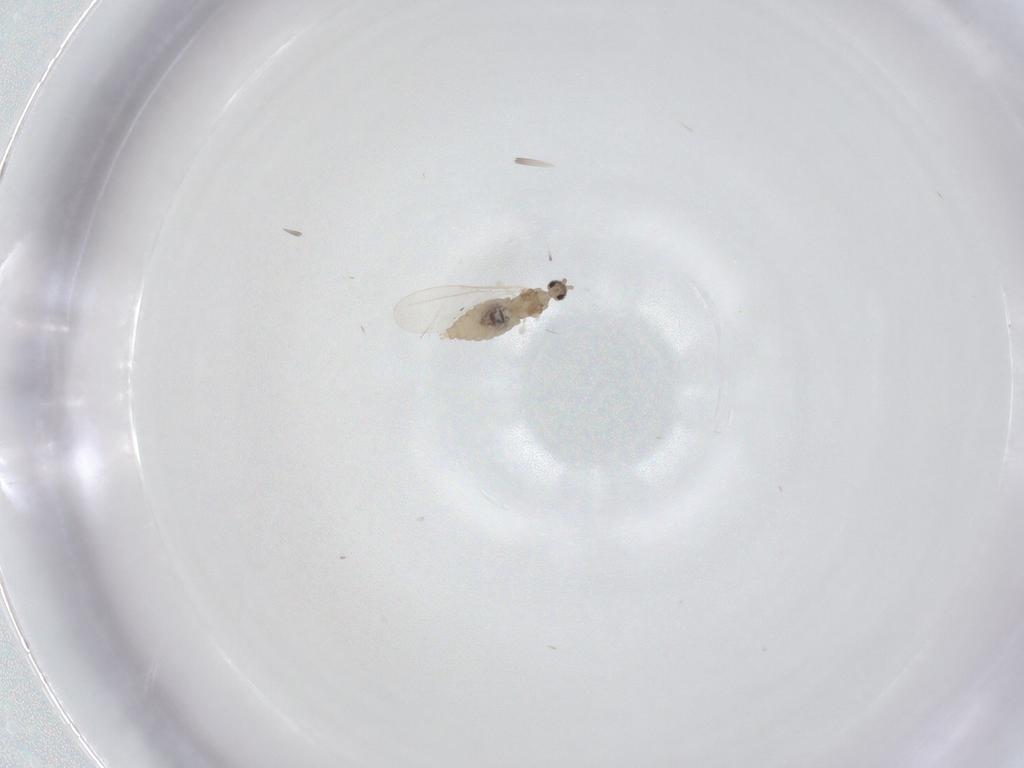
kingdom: Animalia
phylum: Arthropoda
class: Insecta
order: Diptera
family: Cecidomyiidae
